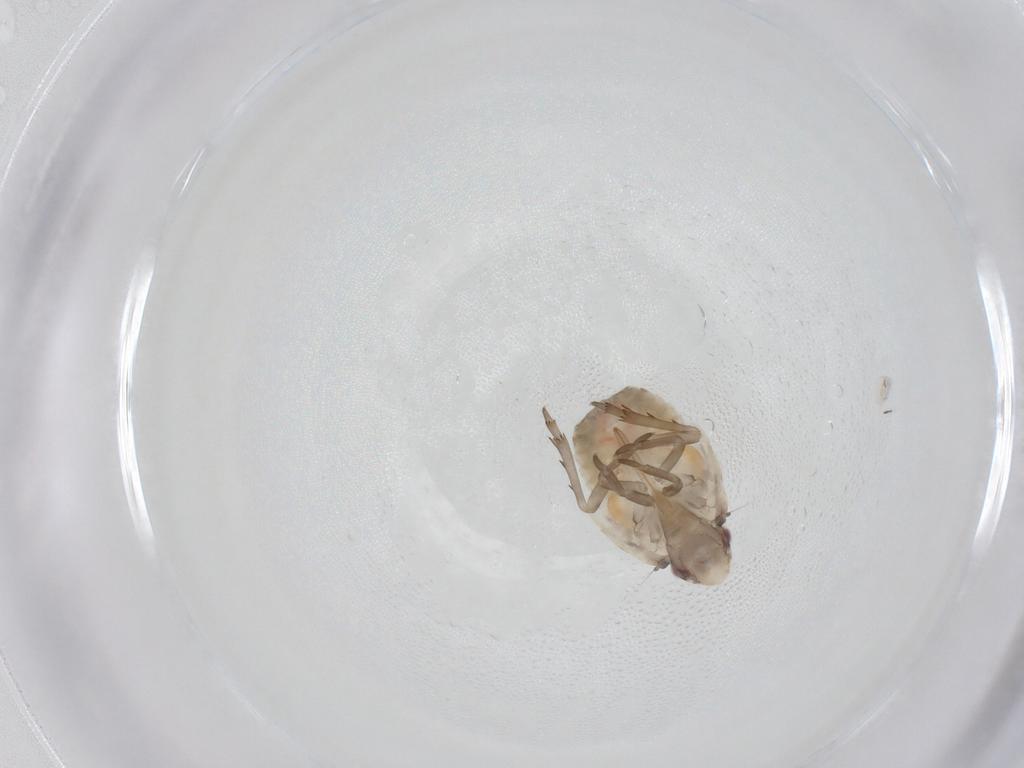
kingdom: Animalia
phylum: Arthropoda
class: Insecta
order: Hemiptera
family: Flatidae
